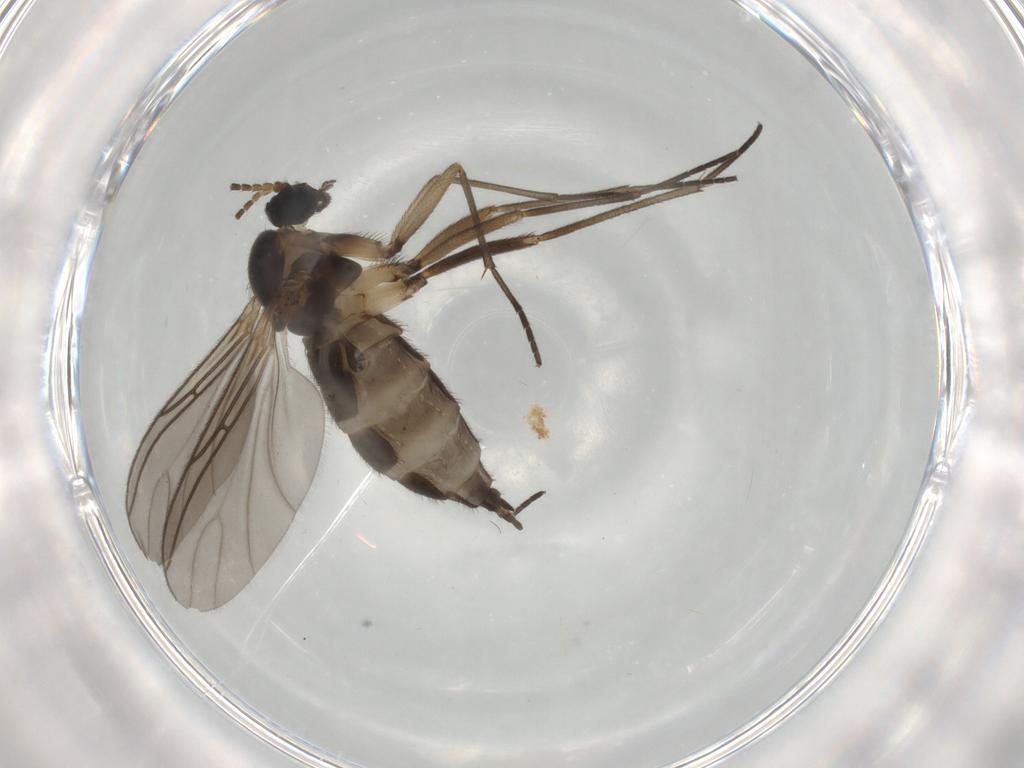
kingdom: Animalia
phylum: Arthropoda
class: Insecta
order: Diptera
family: Sciaridae
